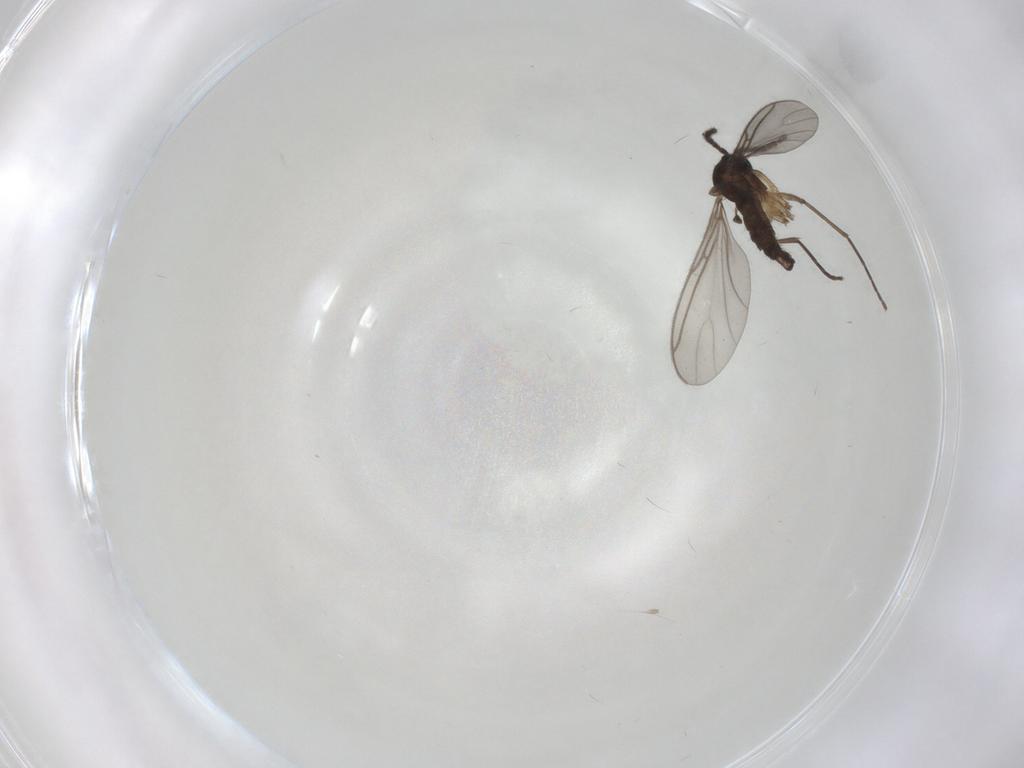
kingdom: Animalia
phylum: Arthropoda
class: Insecta
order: Diptera
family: Sciaridae
